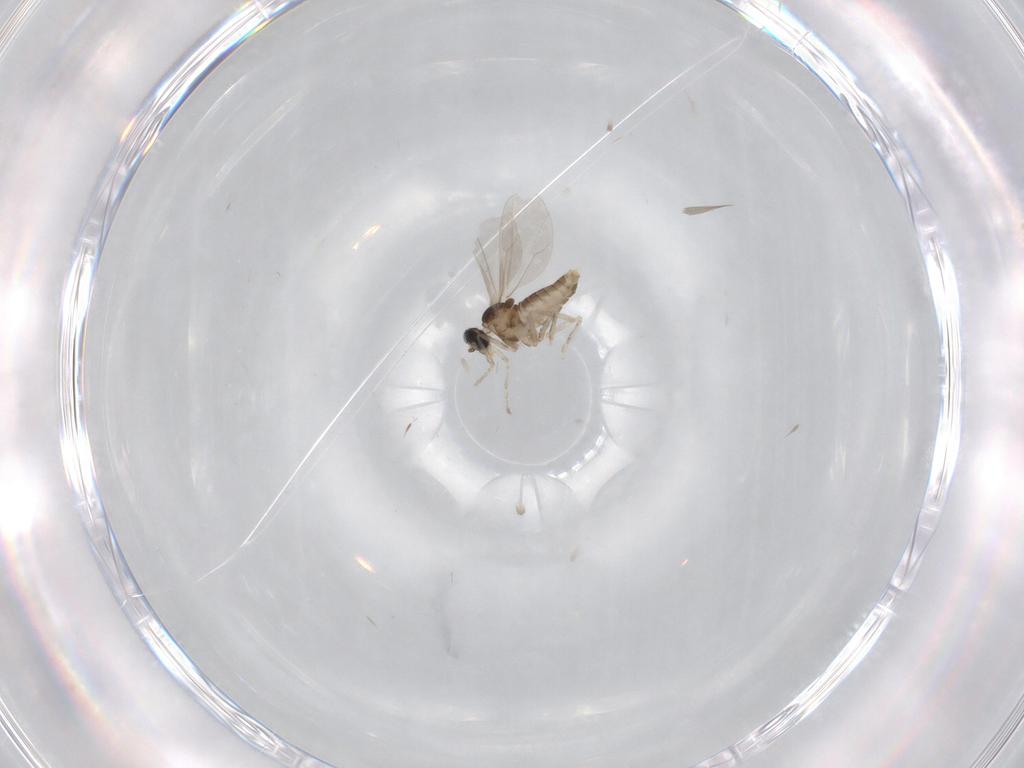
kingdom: Animalia
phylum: Arthropoda
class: Insecta
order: Diptera
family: Cecidomyiidae
